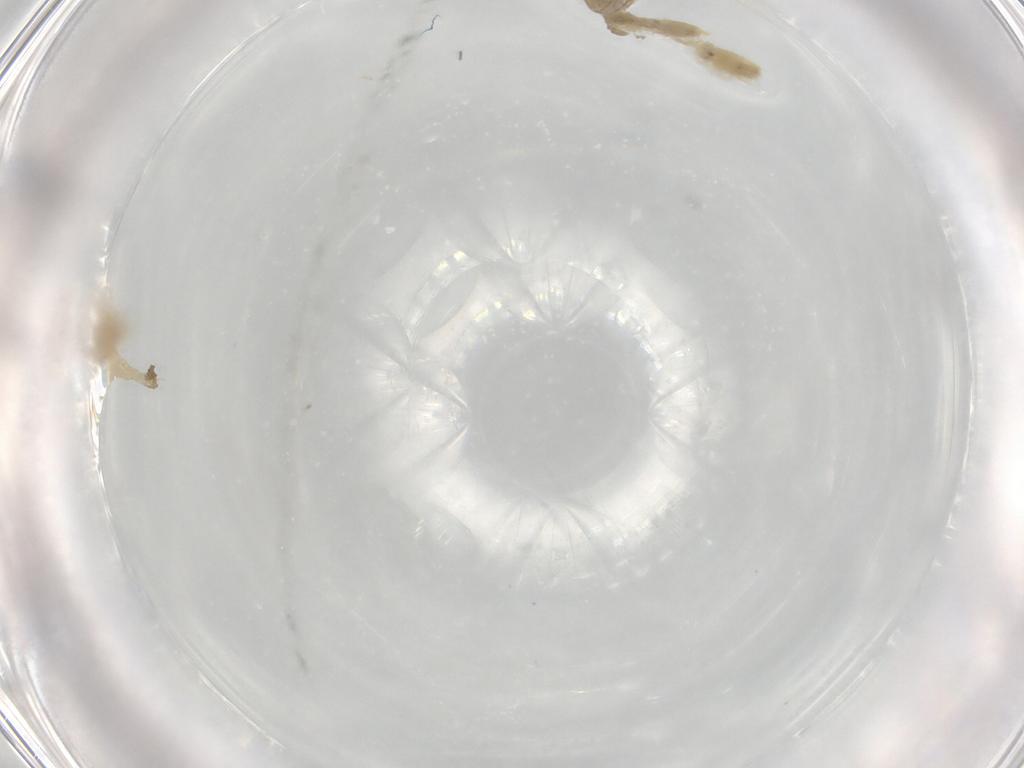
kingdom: Animalia
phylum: Arthropoda
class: Insecta
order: Diptera
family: Chironomidae
